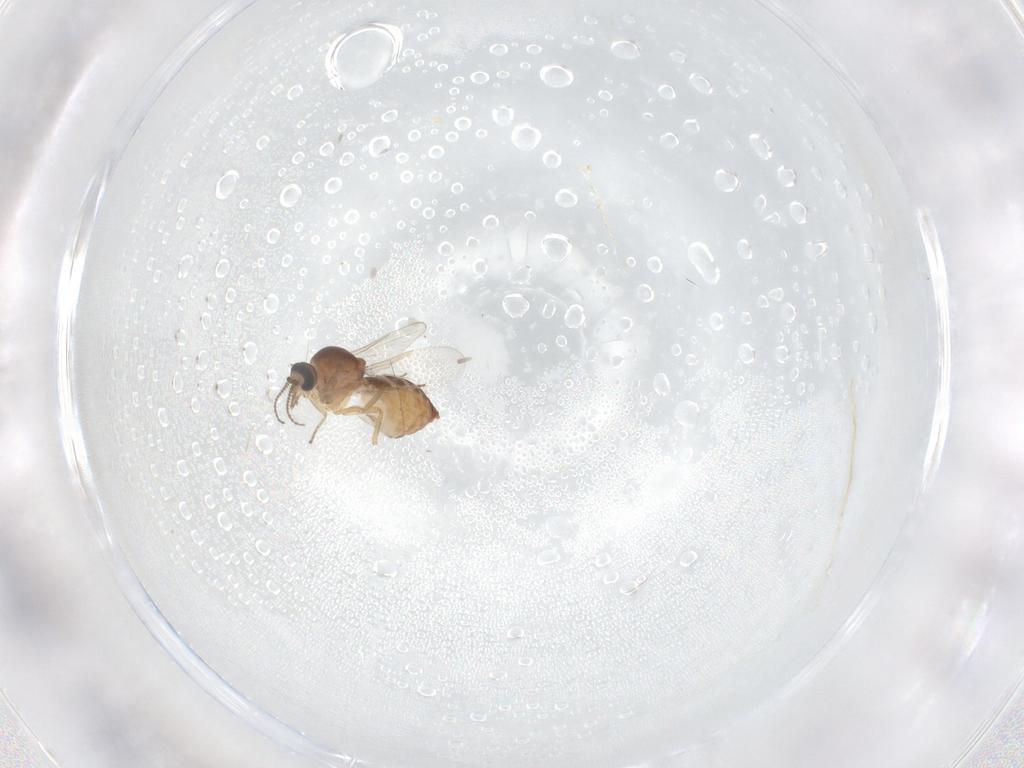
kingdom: Animalia
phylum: Arthropoda
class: Insecta
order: Diptera
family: Ceratopogonidae
